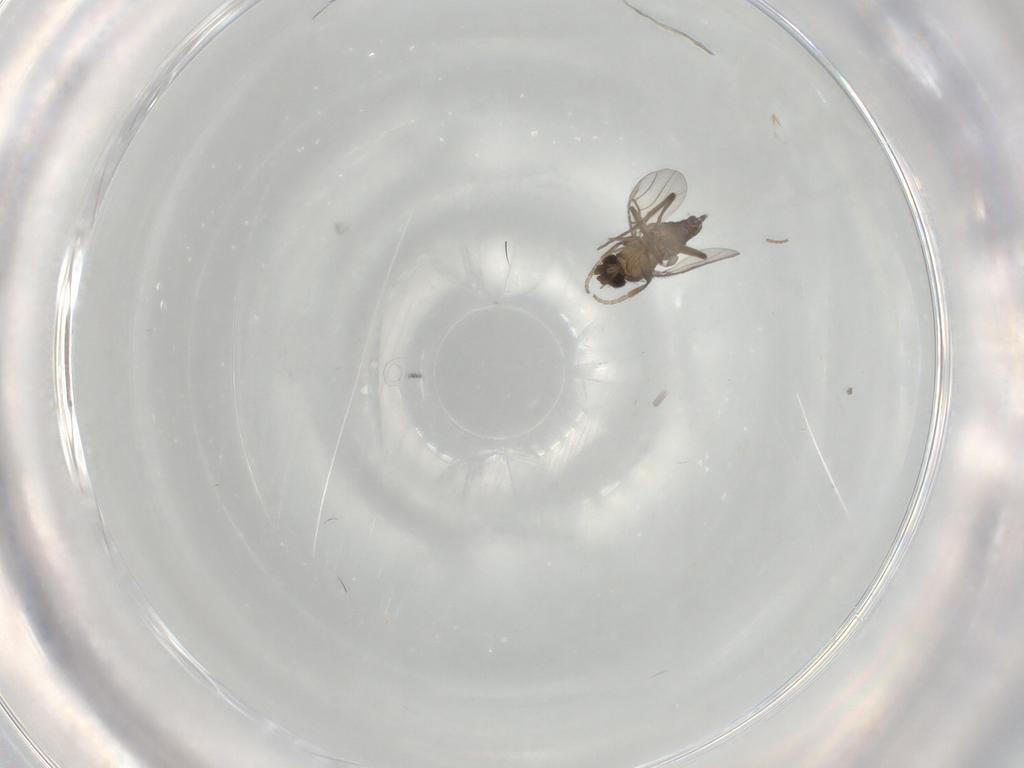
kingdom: Animalia
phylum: Arthropoda
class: Insecta
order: Diptera
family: Phoridae
